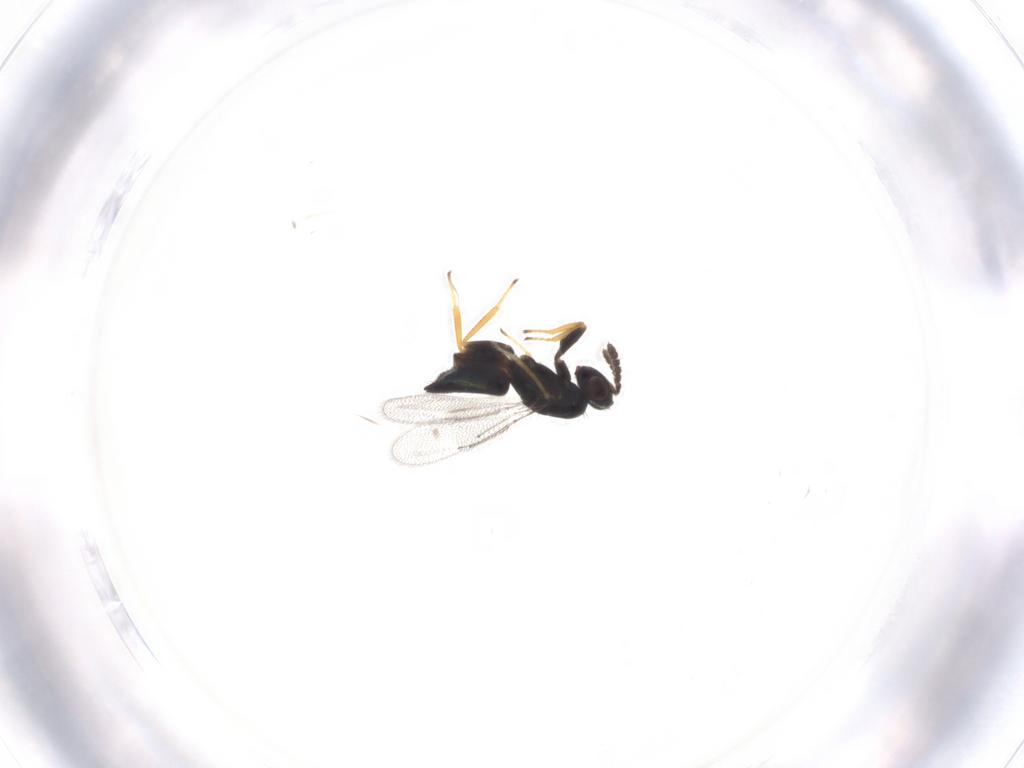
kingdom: Animalia
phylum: Arthropoda
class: Insecta
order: Hymenoptera
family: Eulophidae
